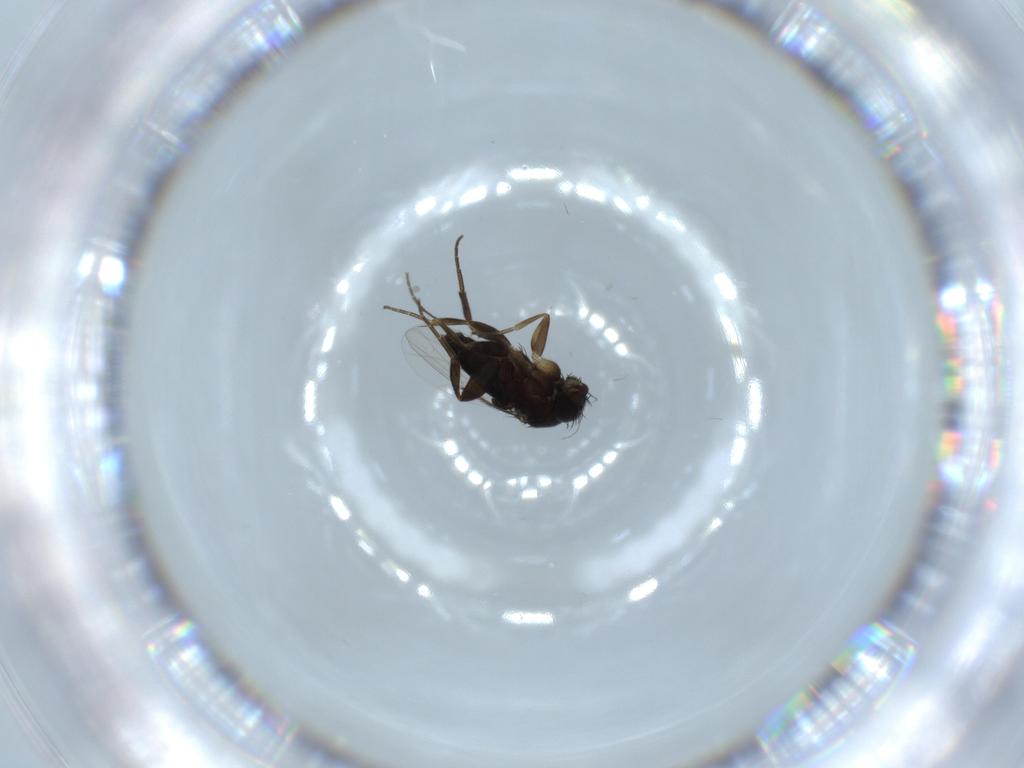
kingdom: Animalia
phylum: Arthropoda
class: Insecta
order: Diptera
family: Phoridae
